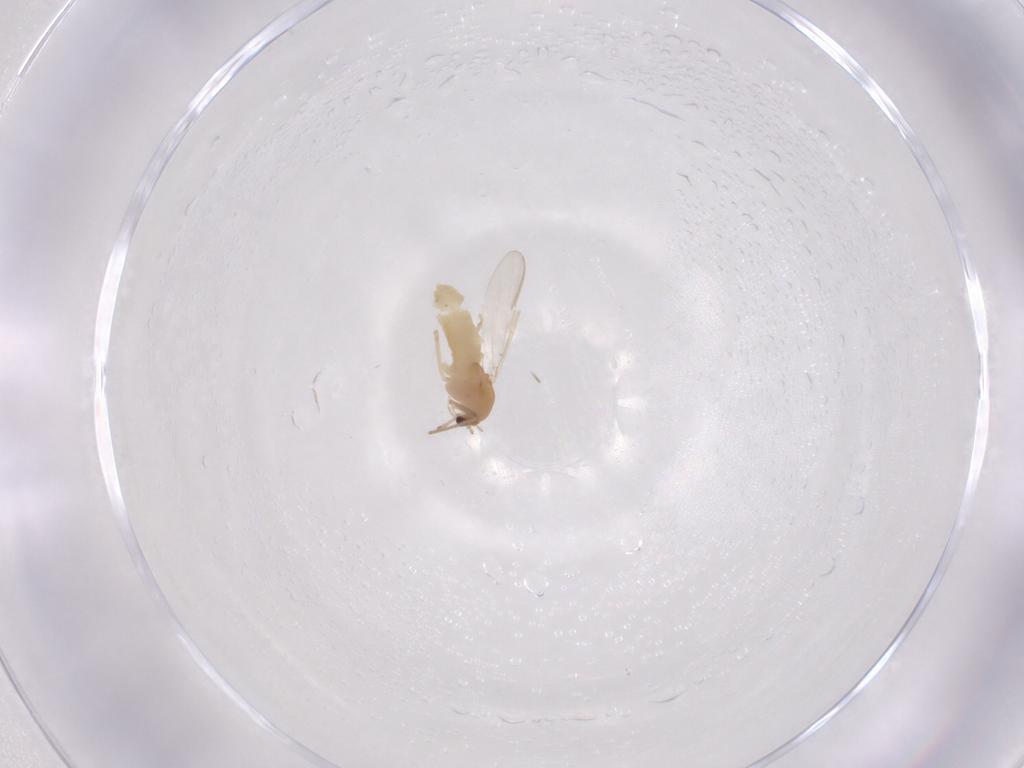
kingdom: Animalia
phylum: Arthropoda
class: Insecta
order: Diptera
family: Chironomidae
